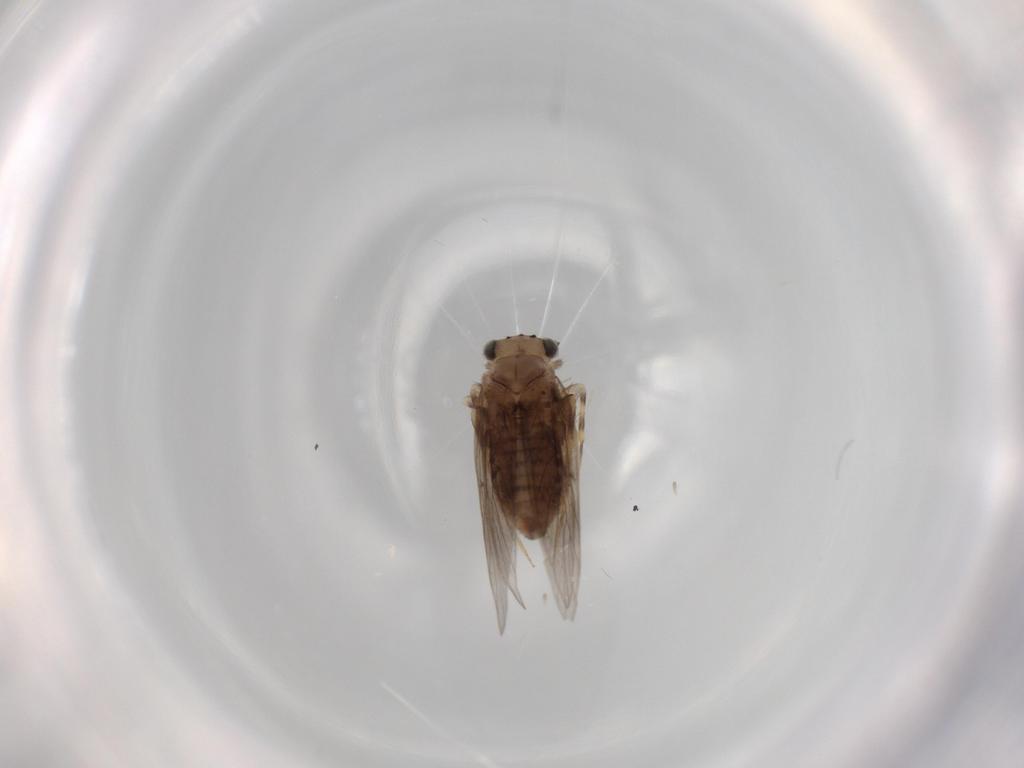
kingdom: Animalia
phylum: Arthropoda
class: Insecta
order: Psocodea
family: Lepidopsocidae
